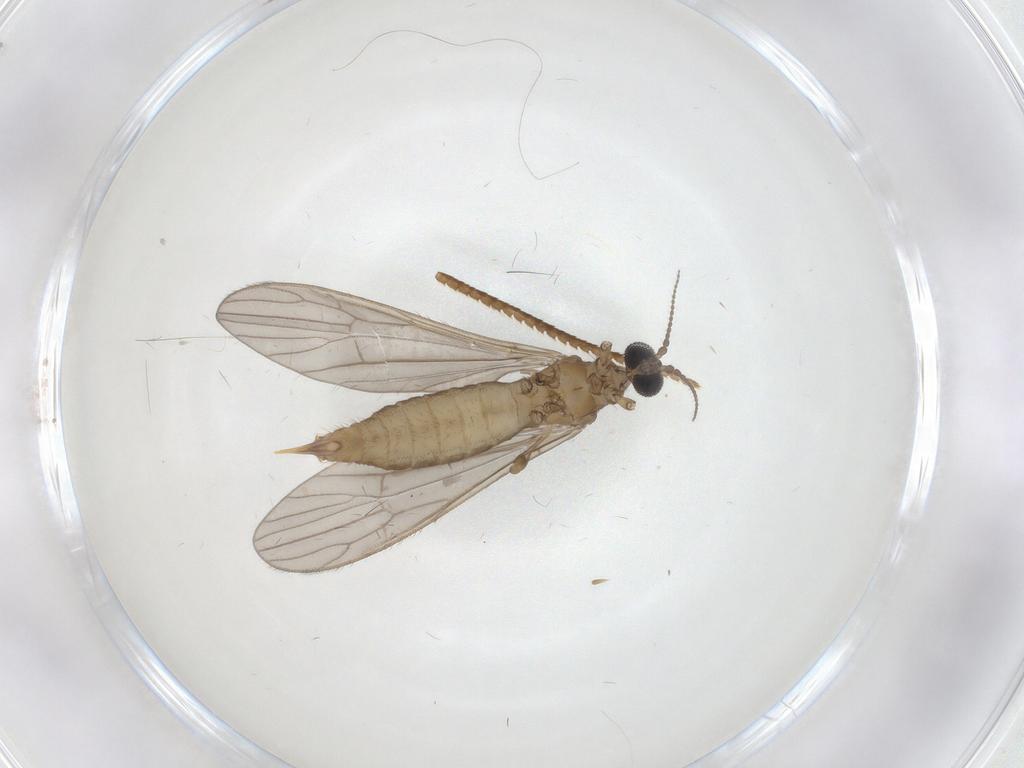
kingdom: Animalia
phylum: Arthropoda
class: Insecta
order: Diptera
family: Limoniidae
